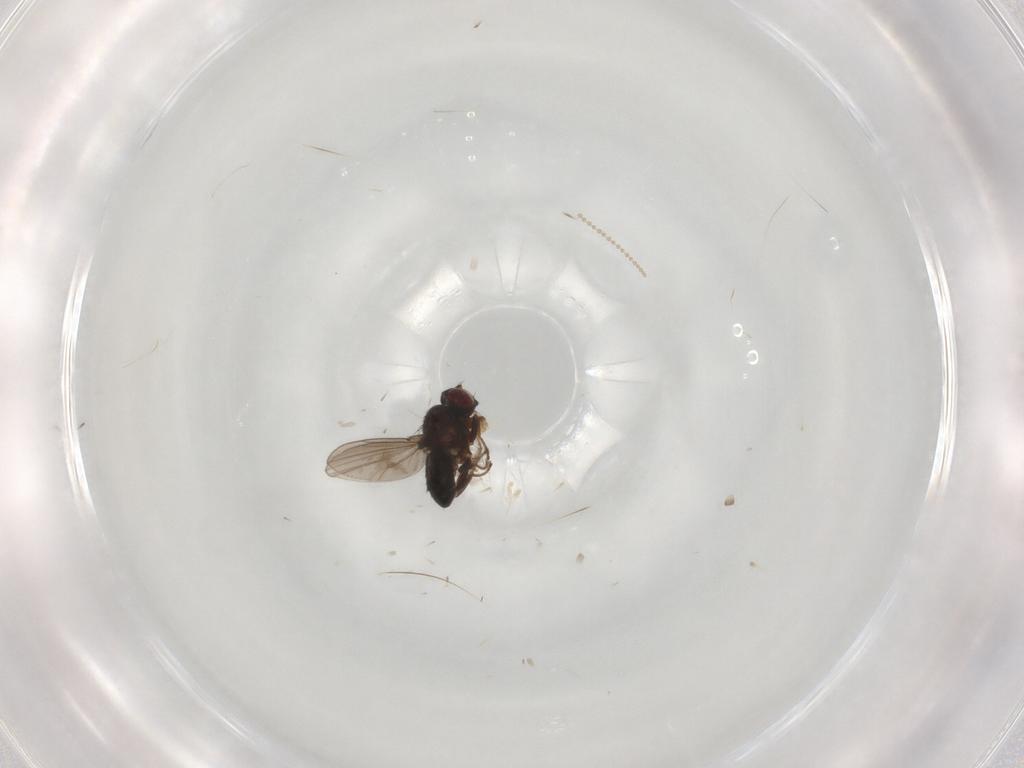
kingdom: Animalia
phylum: Arthropoda
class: Insecta
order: Diptera
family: Ephydridae
